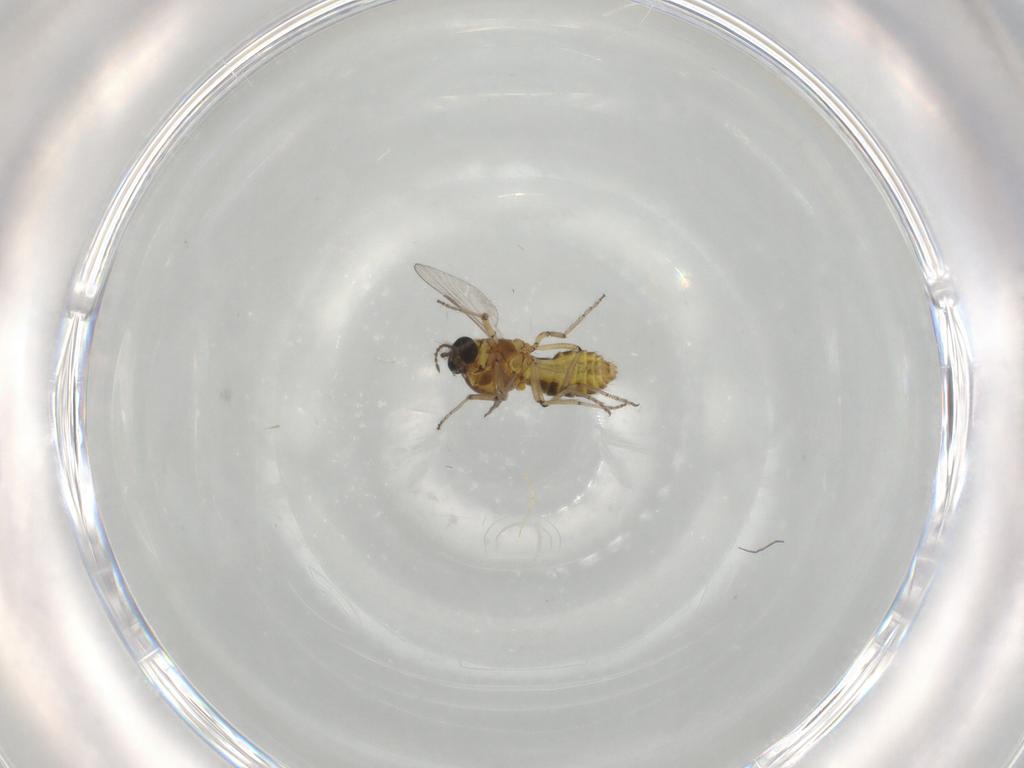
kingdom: Animalia
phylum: Arthropoda
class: Insecta
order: Diptera
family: Ceratopogonidae
